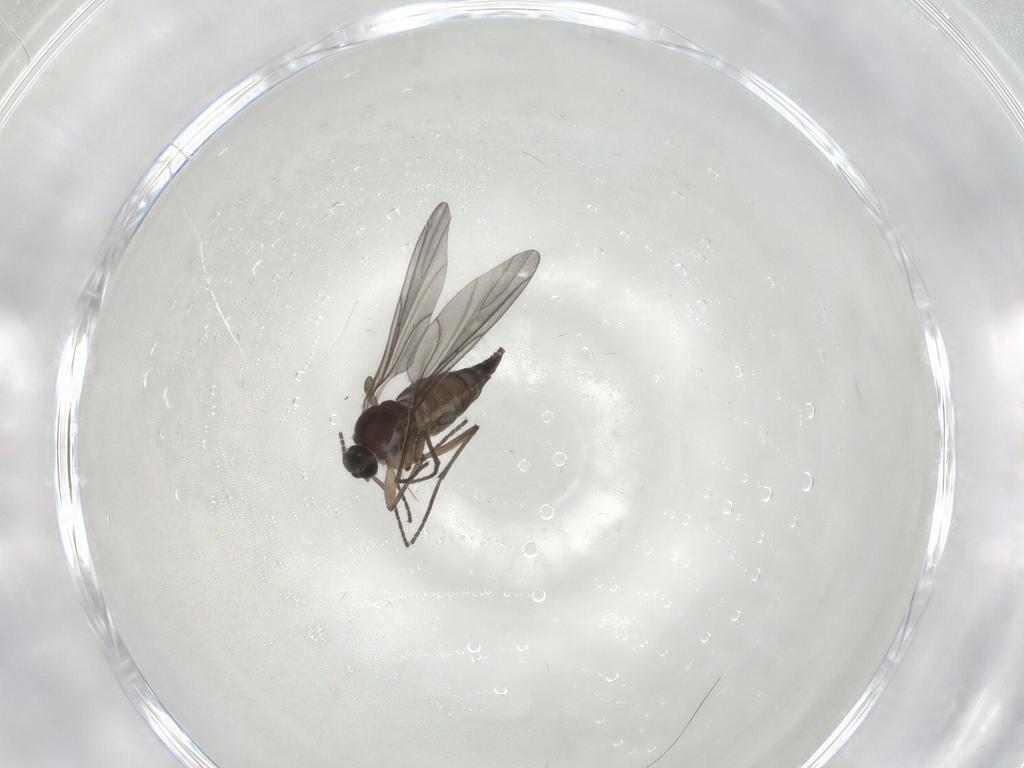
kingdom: Animalia
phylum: Arthropoda
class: Insecta
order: Diptera
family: Sciaridae
